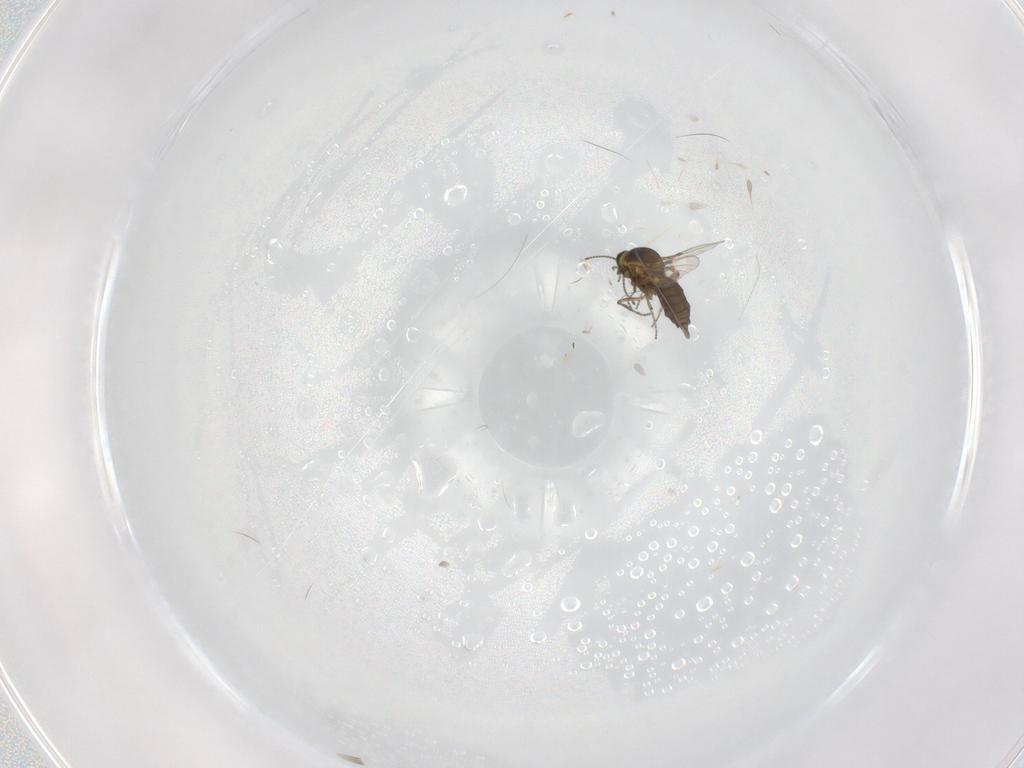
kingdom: Animalia
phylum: Arthropoda
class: Insecta
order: Diptera
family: Ceratopogonidae
